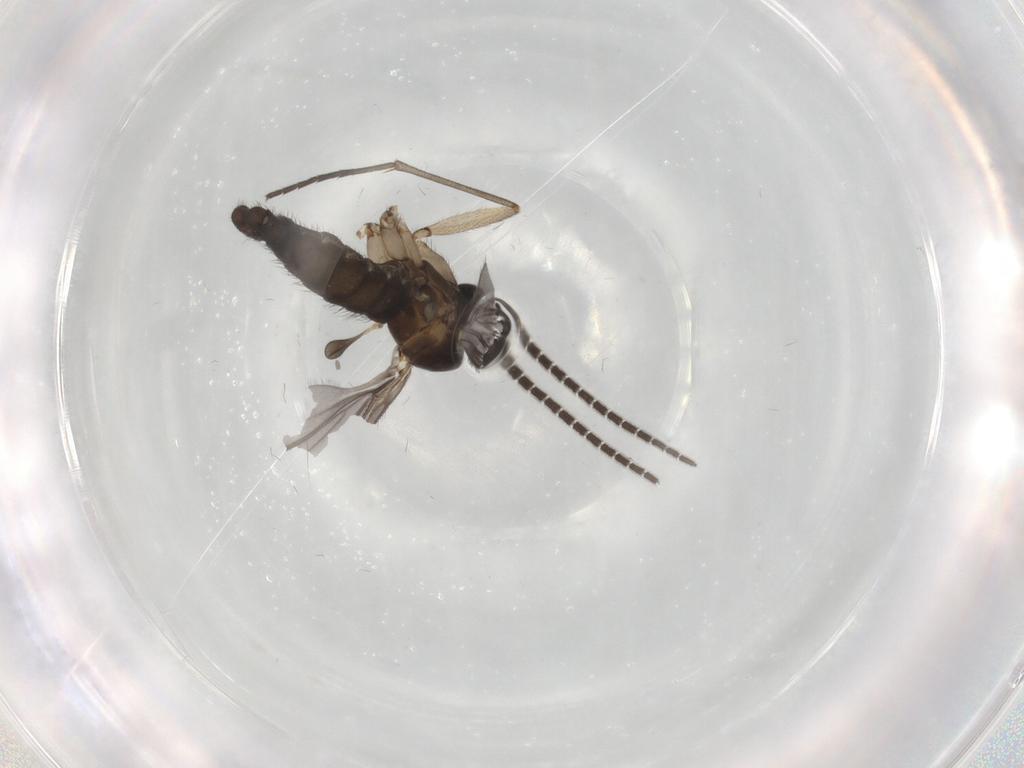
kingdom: Animalia
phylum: Arthropoda
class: Insecta
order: Diptera
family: Sciaridae
